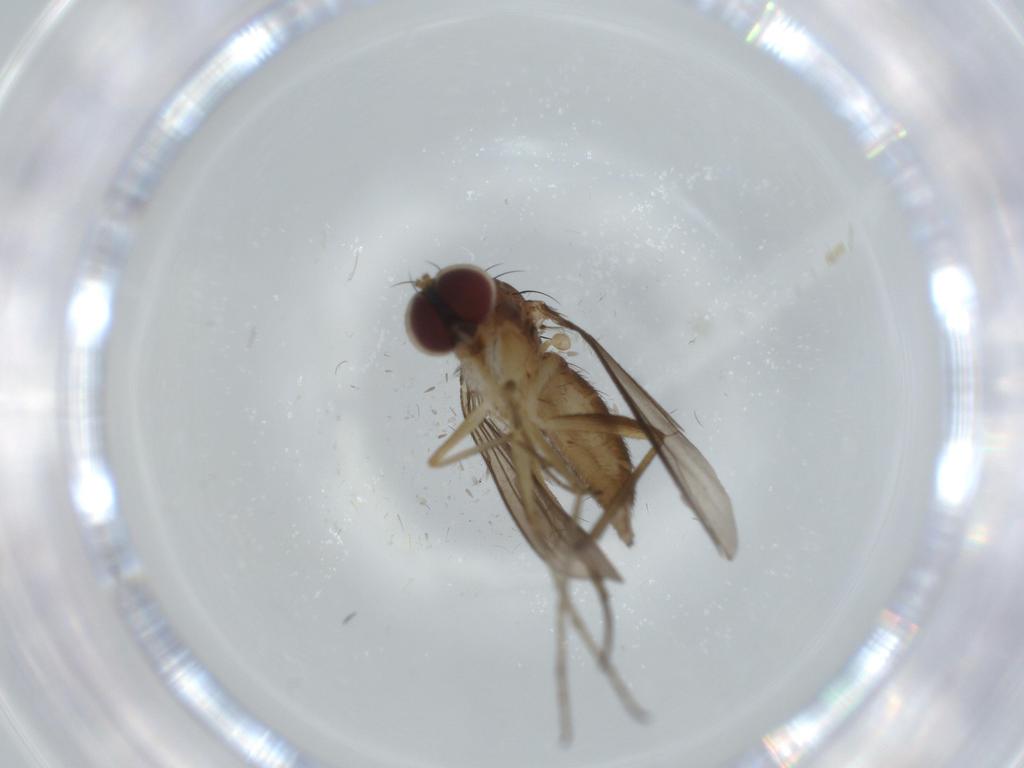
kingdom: Animalia
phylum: Arthropoda
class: Insecta
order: Diptera
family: Dolichopodidae
